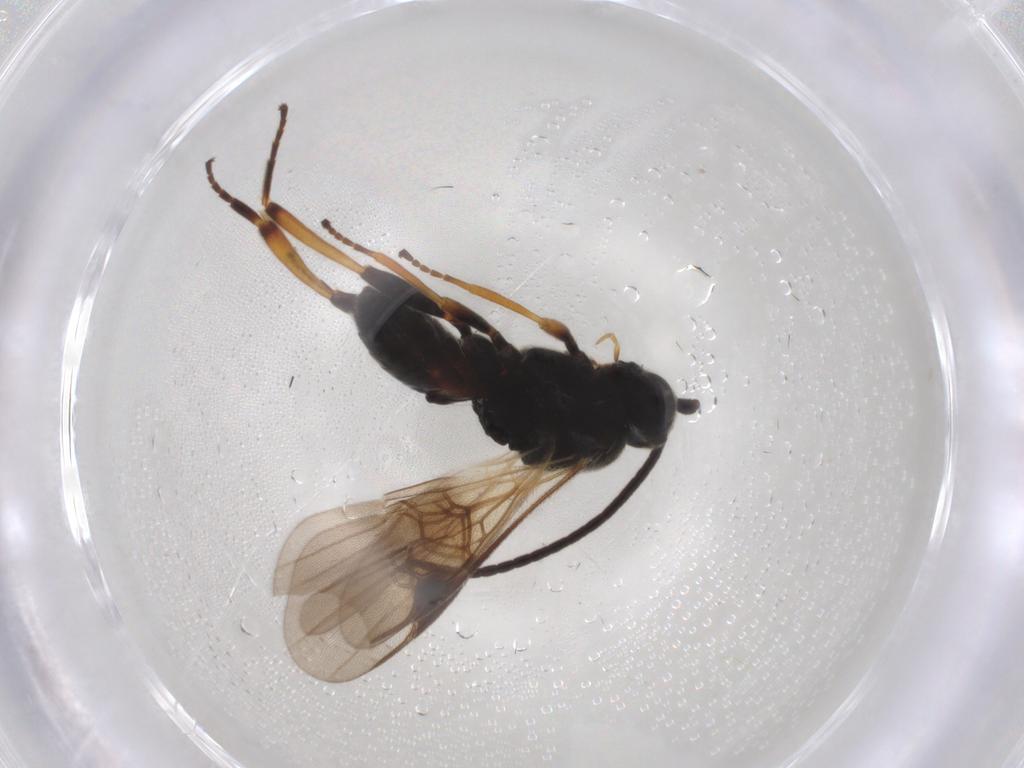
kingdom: Animalia
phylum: Arthropoda
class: Insecta
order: Hymenoptera
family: Braconidae
